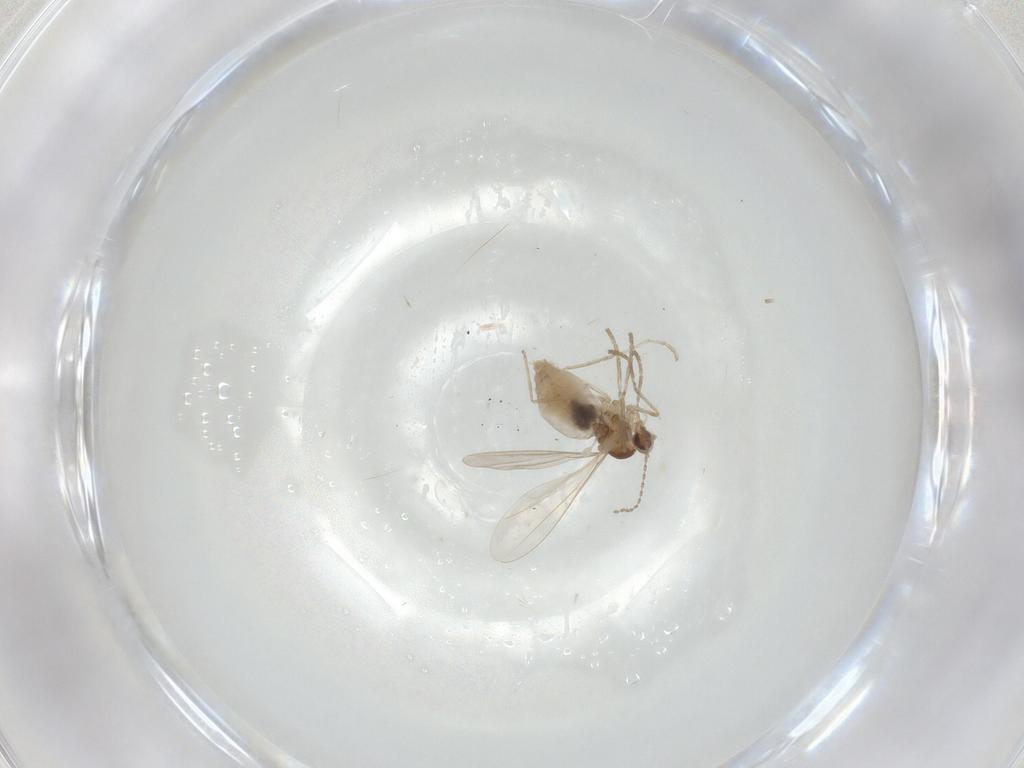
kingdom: Animalia
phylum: Arthropoda
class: Insecta
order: Diptera
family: Cecidomyiidae
